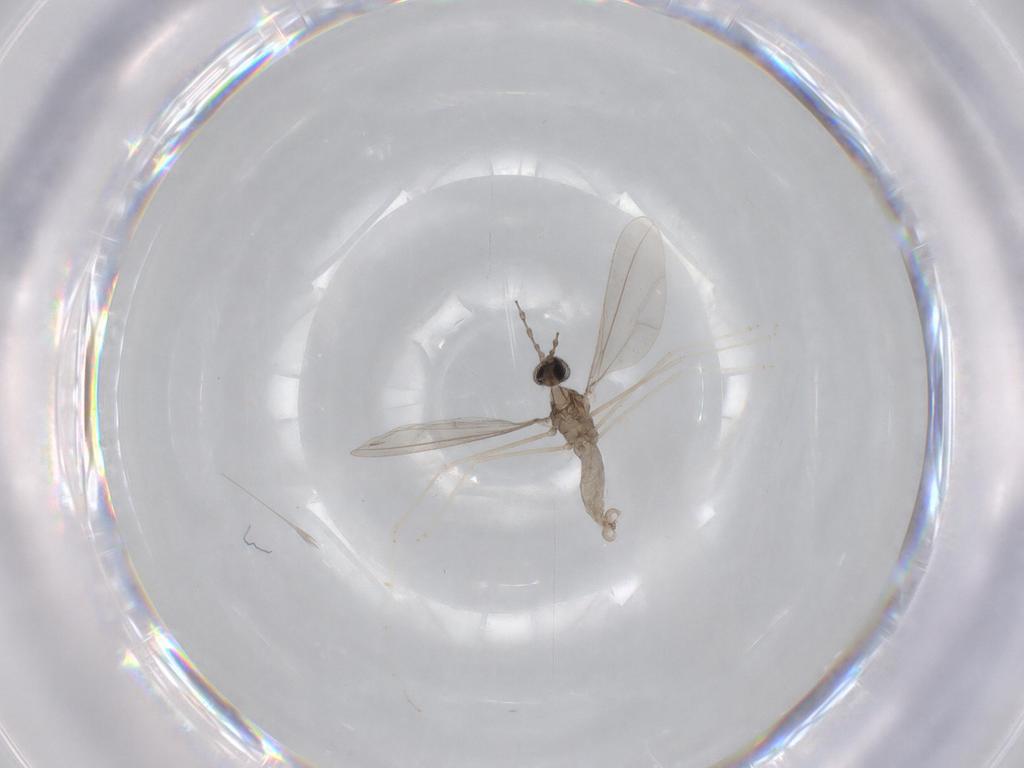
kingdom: Animalia
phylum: Arthropoda
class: Insecta
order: Diptera
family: Cecidomyiidae
